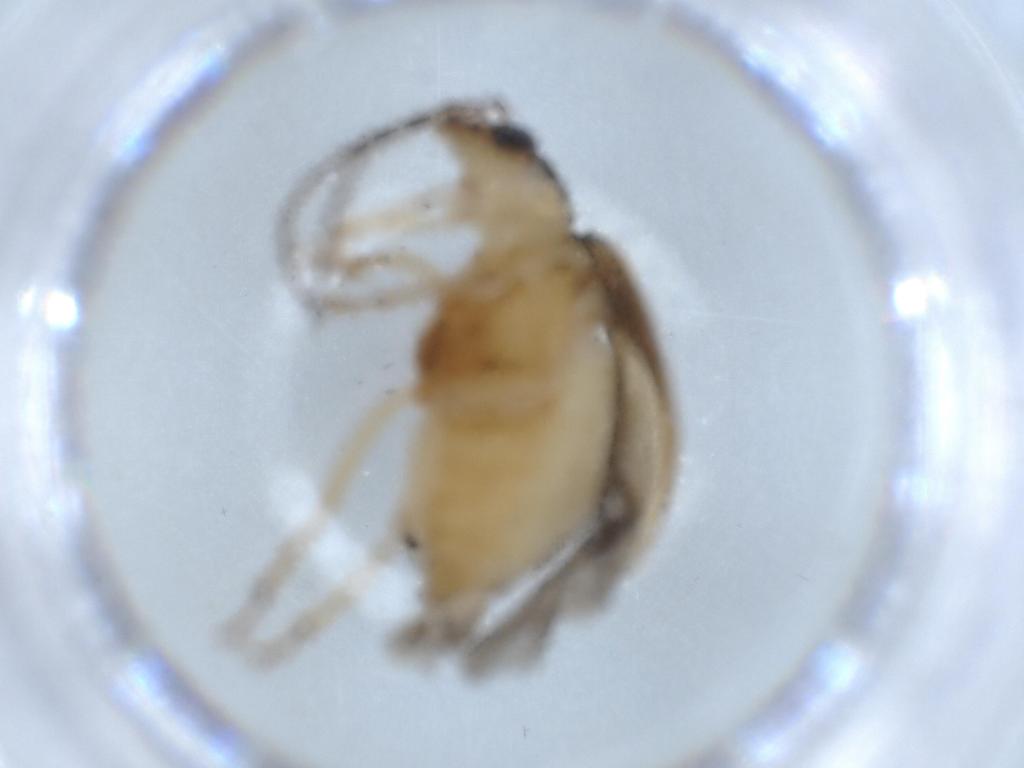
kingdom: Animalia
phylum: Arthropoda
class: Insecta
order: Coleoptera
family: Chrysomelidae
